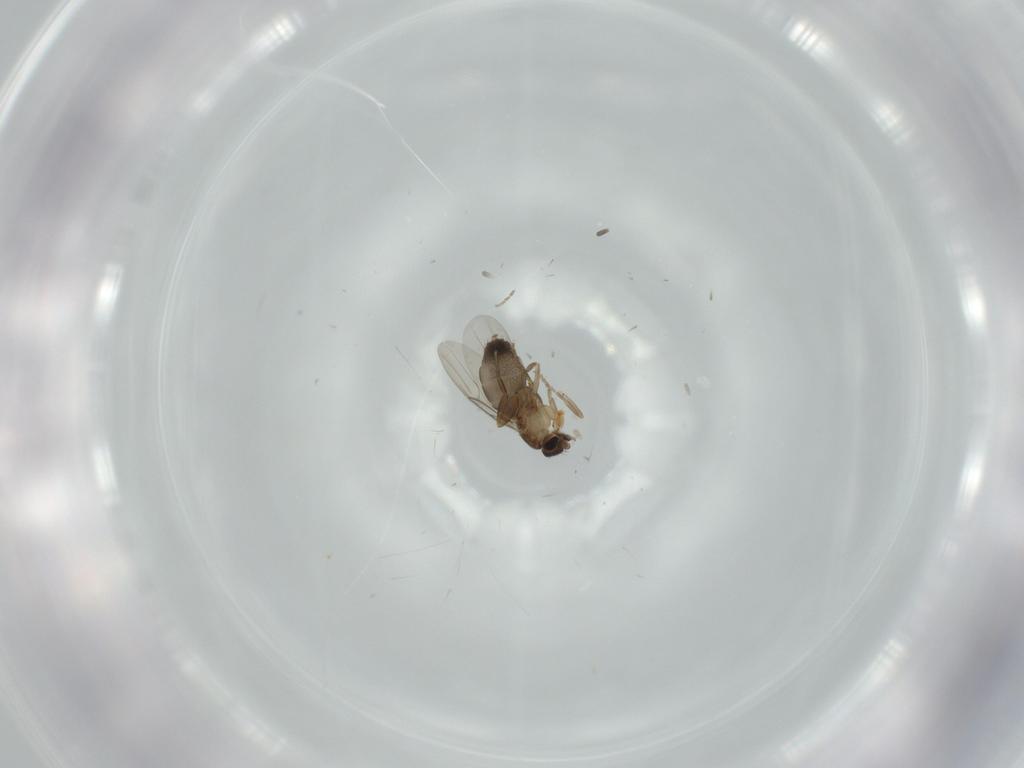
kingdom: Animalia
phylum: Arthropoda
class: Insecta
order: Diptera
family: Phoridae
